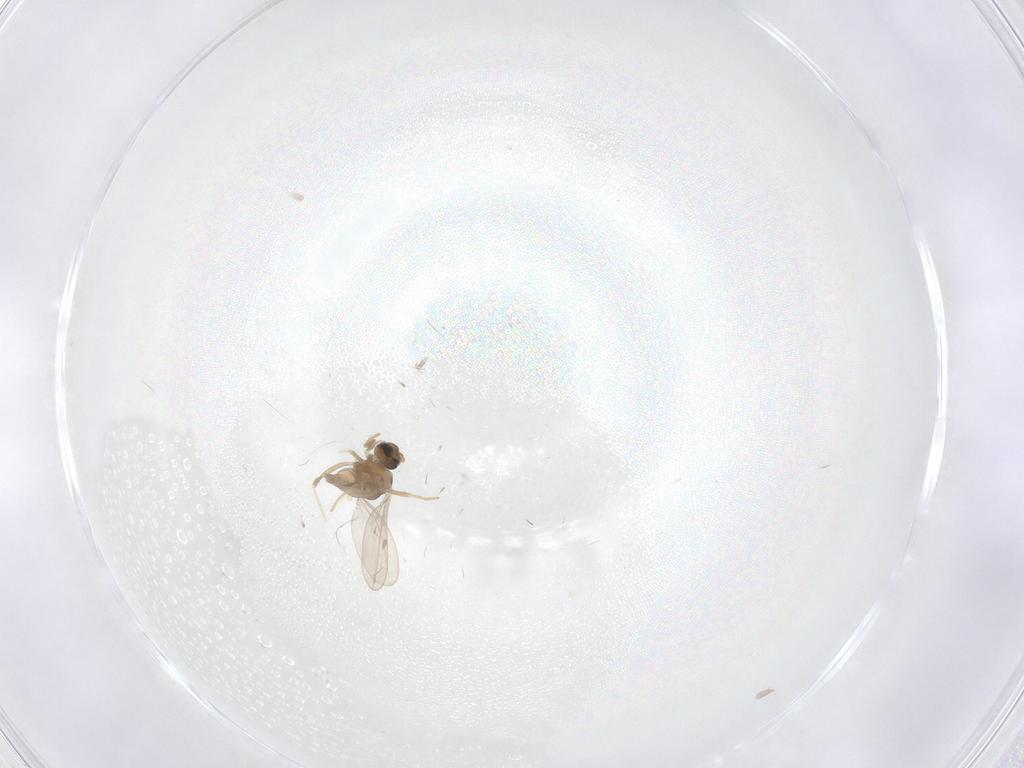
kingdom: Animalia
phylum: Arthropoda
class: Insecta
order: Diptera
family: Cecidomyiidae
